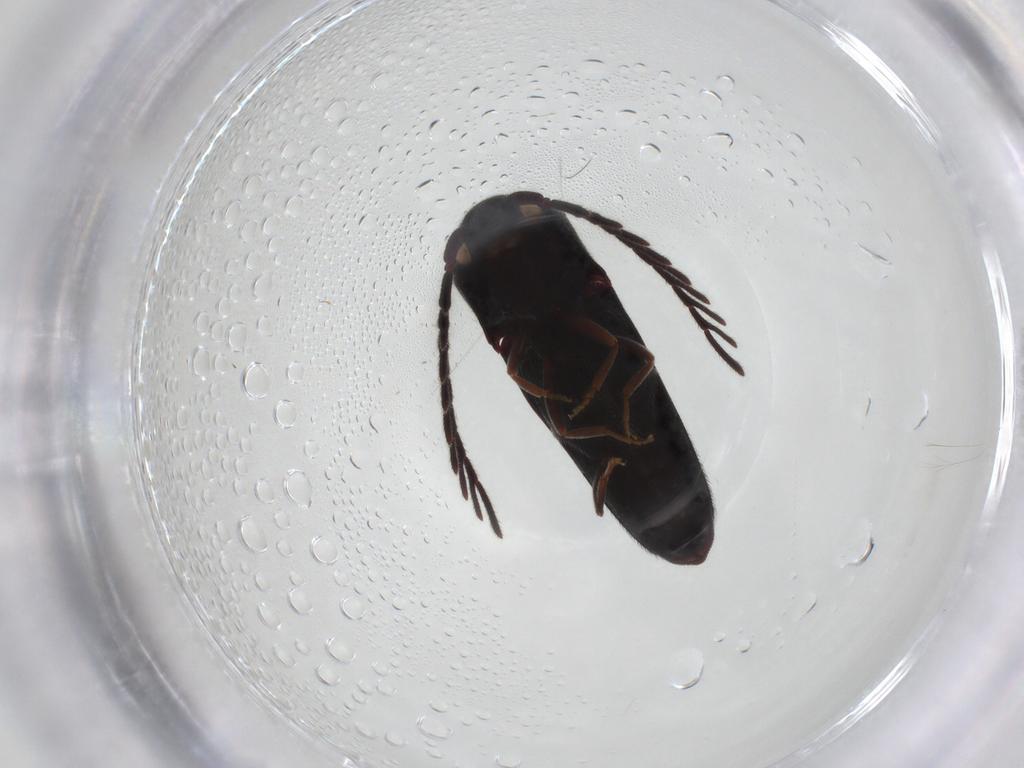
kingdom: Animalia
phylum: Arthropoda
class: Insecta
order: Coleoptera
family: Eucnemidae
